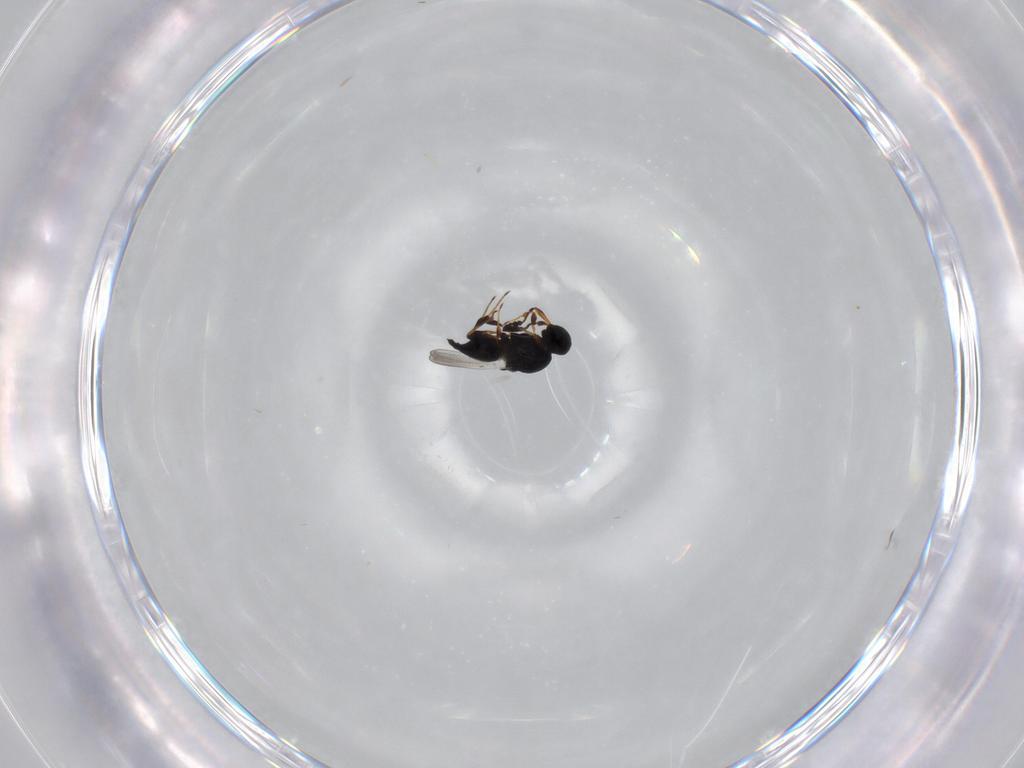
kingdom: Animalia
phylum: Arthropoda
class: Insecta
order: Hymenoptera
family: Platygastridae
